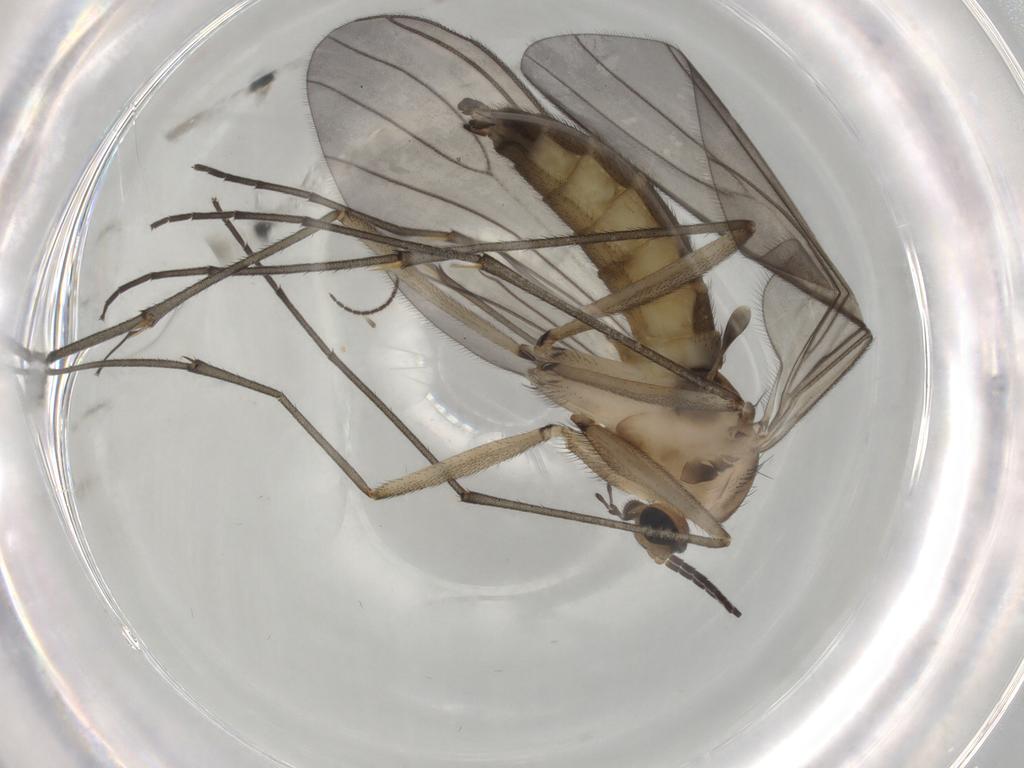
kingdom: Animalia
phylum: Arthropoda
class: Insecta
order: Diptera
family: Sciaridae
